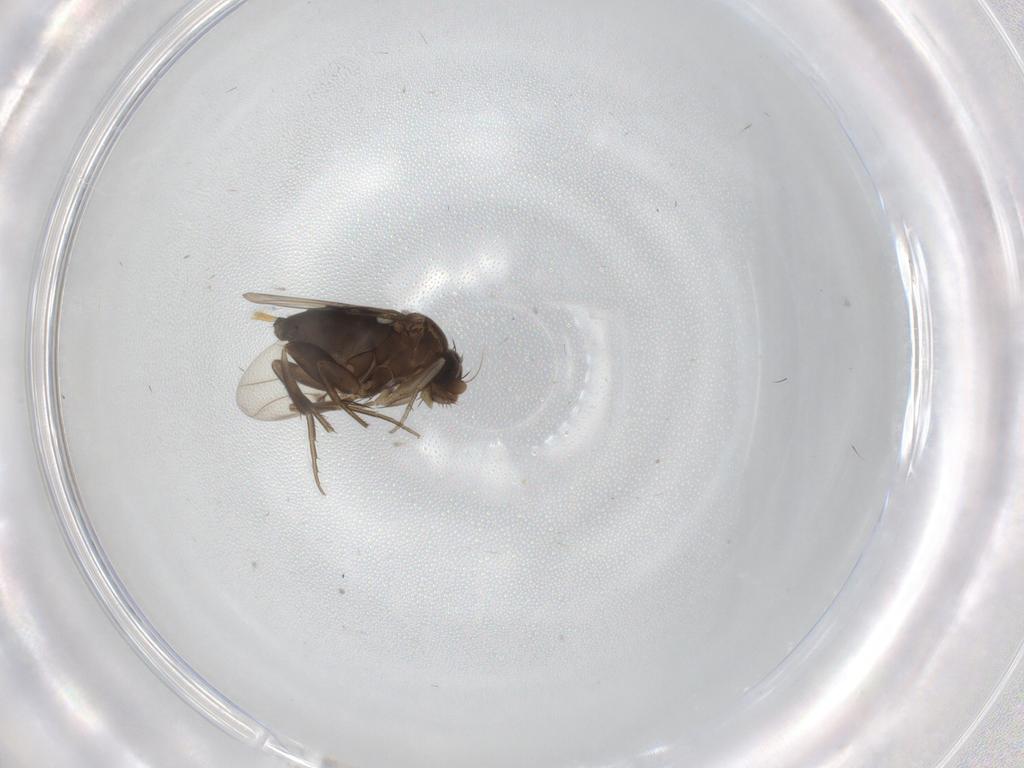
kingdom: Animalia
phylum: Arthropoda
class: Insecta
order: Diptera
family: Phoridae
